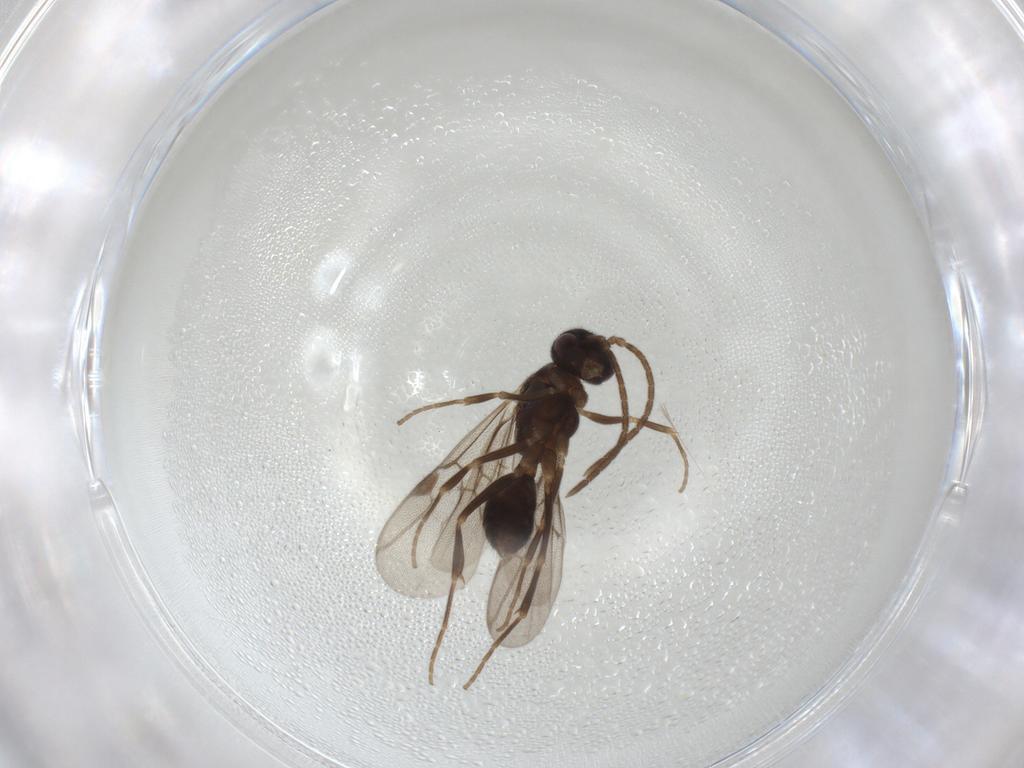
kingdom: Animalia
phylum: Arthropoda
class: Insecta
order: Hymenoptera
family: Formicidae
